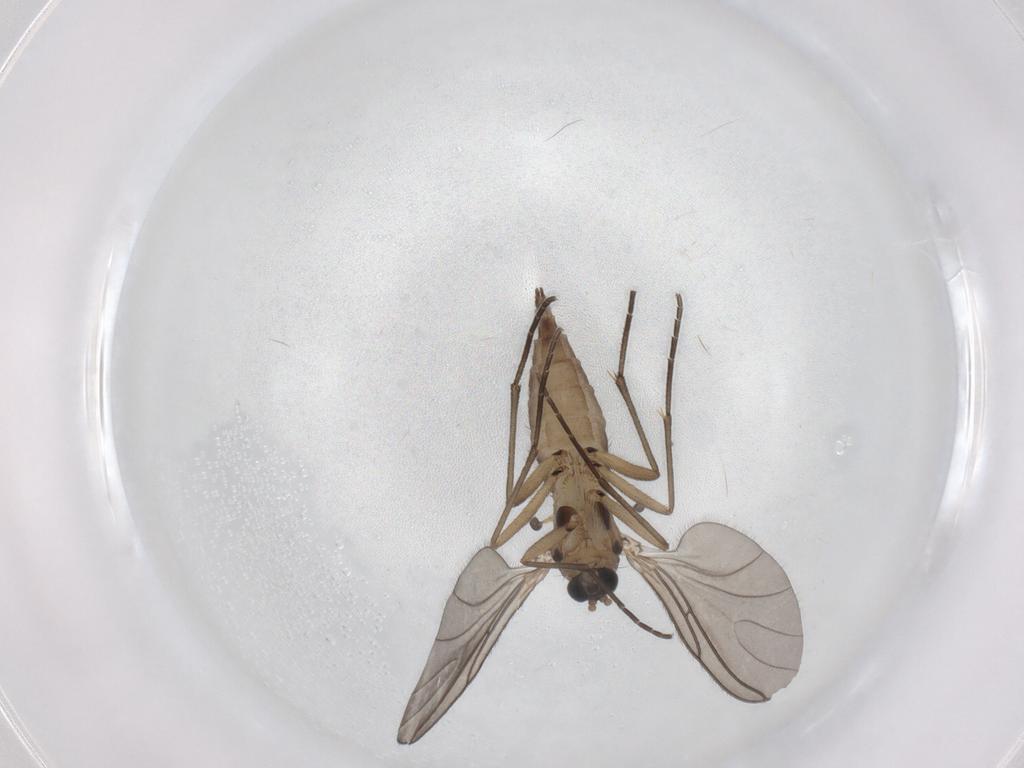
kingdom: Animalia
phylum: Arthropoda
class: Insecta
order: Diptera
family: Sciaridae
